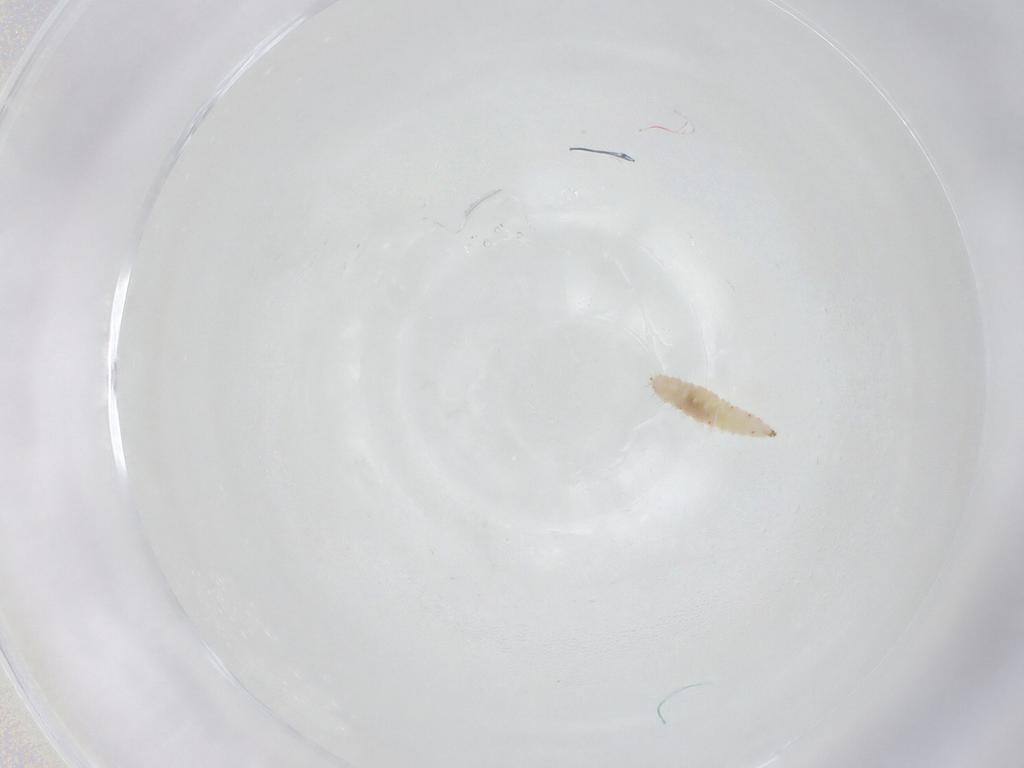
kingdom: Animalia
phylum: Arthropoda
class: Insecta
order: Diptera
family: Cecidomyiidae
